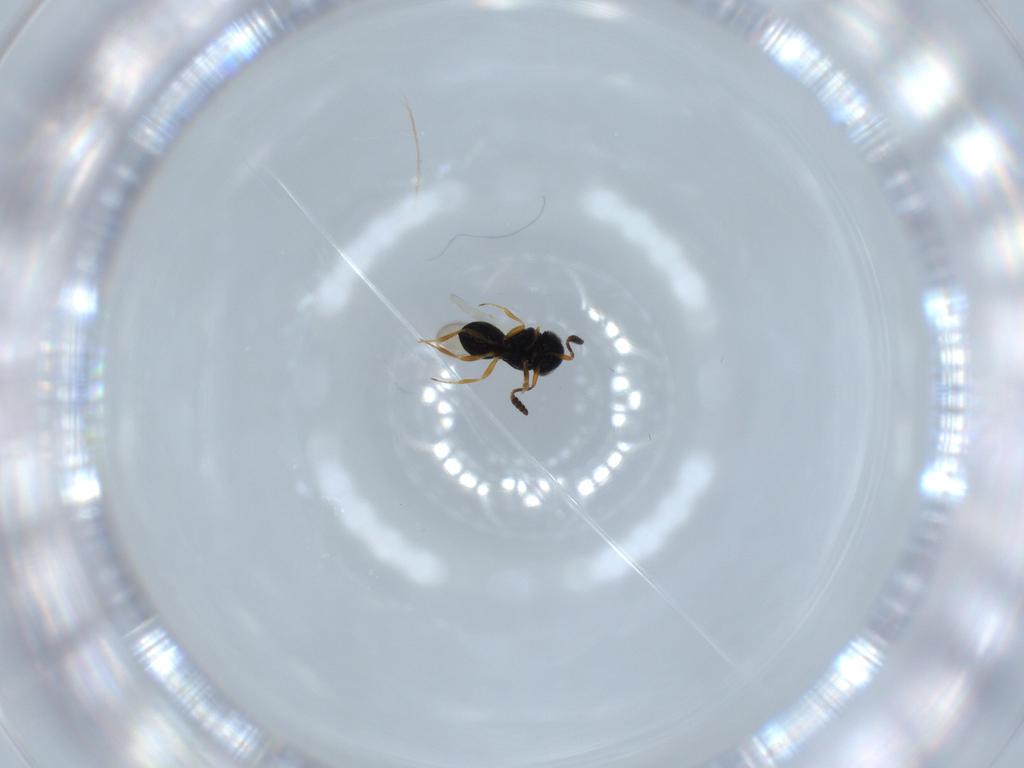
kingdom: Animalia
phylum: Arthropoda
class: Insecta
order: Hymenoptera
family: Scelionidae
